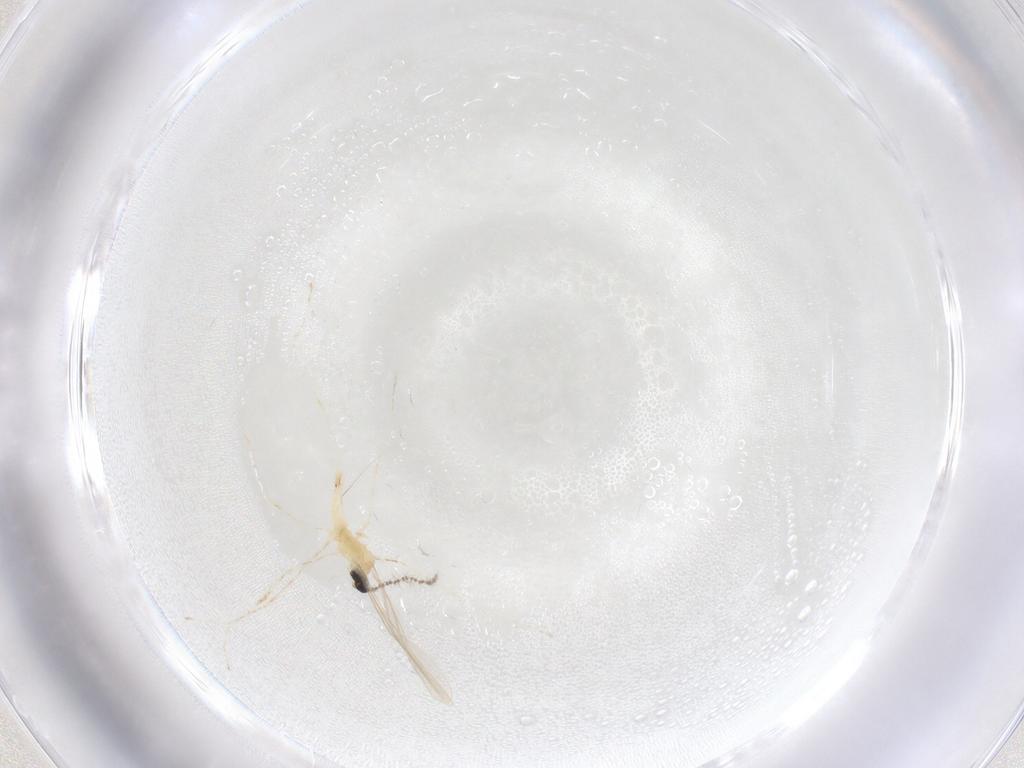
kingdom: Animalia
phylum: Arthropoda
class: Insecta
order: Diptera
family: Cecidomyiidae
